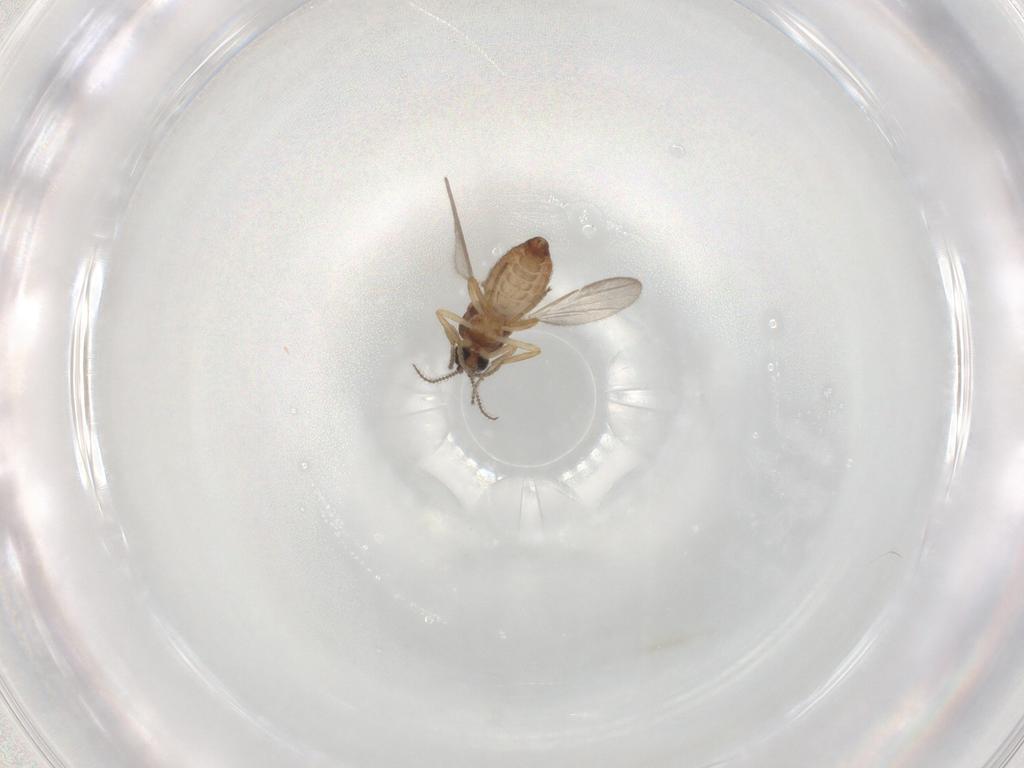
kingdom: Animalia
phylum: Arthropoda
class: Insecta
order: Diptera
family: Ceratopogonidae
